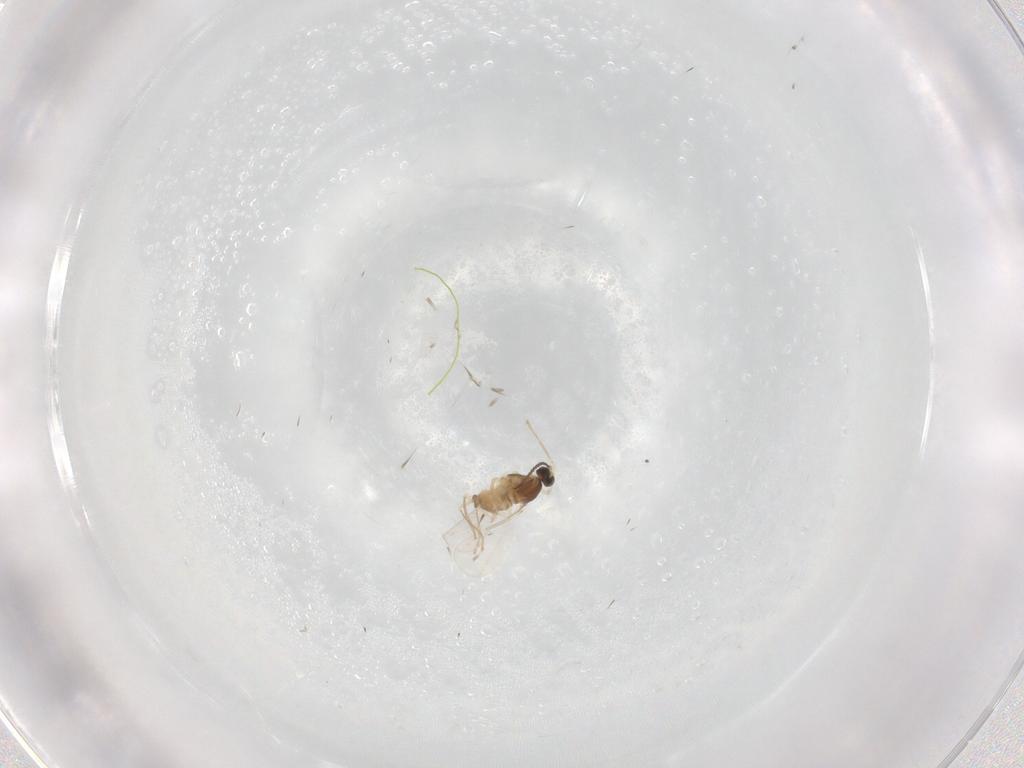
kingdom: Animalia
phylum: Arthropoda
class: Insecta
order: Diptera
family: Cecidomyiidae
